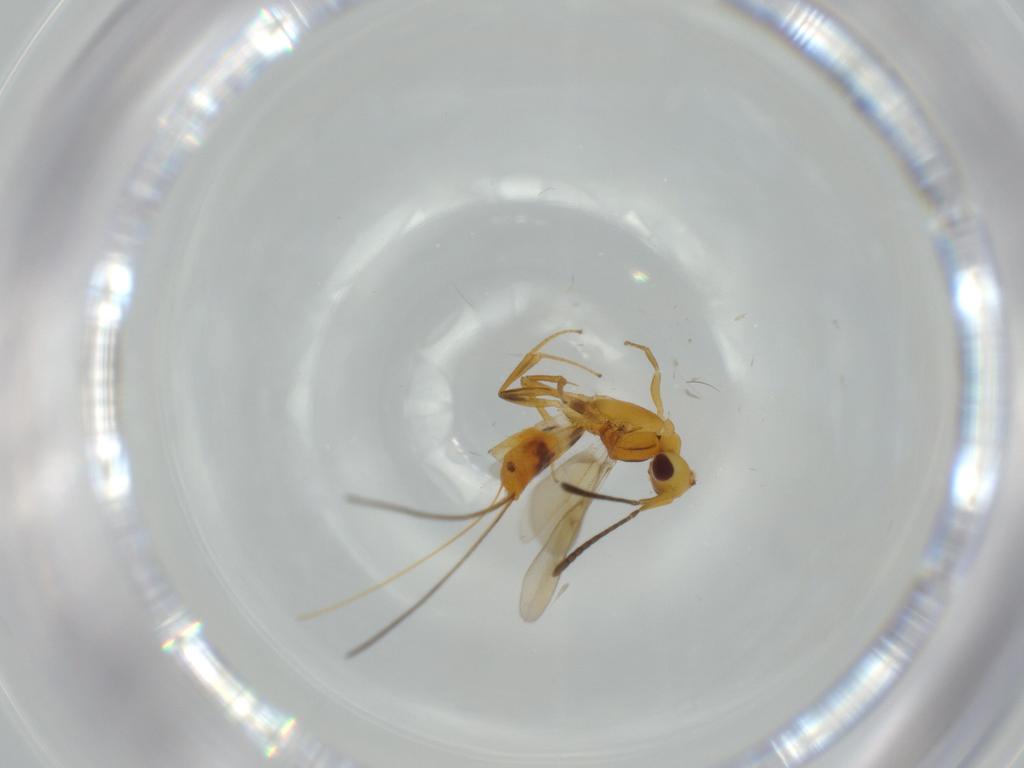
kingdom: Animalia
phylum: Arthropoda
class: Insecta
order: Hymenoptera
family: Bethylidae
